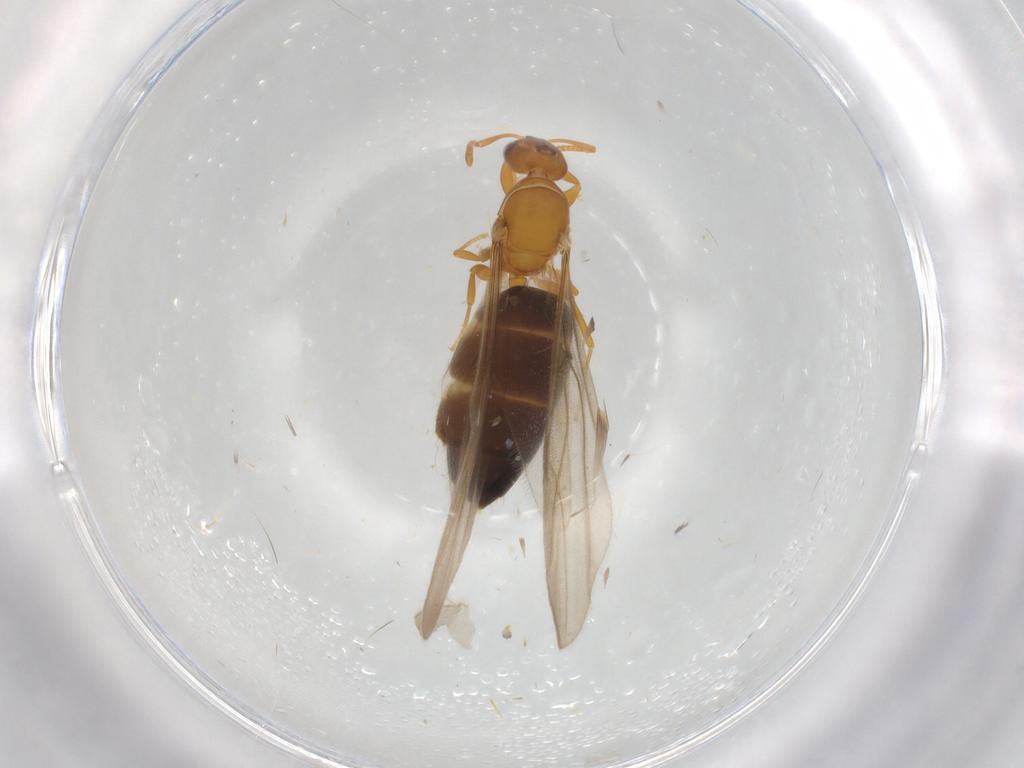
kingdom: Animalia
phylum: Arthropoda
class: Insecta
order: Hymenoptera
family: Formicidae
